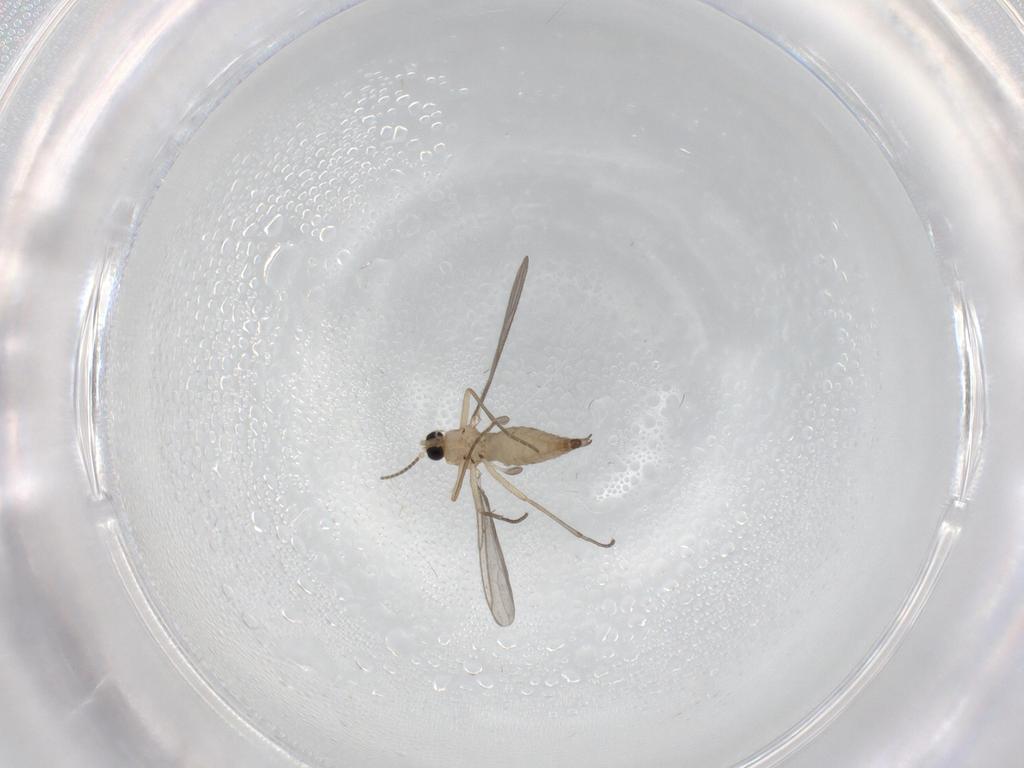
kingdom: Animalia
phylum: Arthropoda
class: Insecta
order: Diptera
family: Sciaridae
